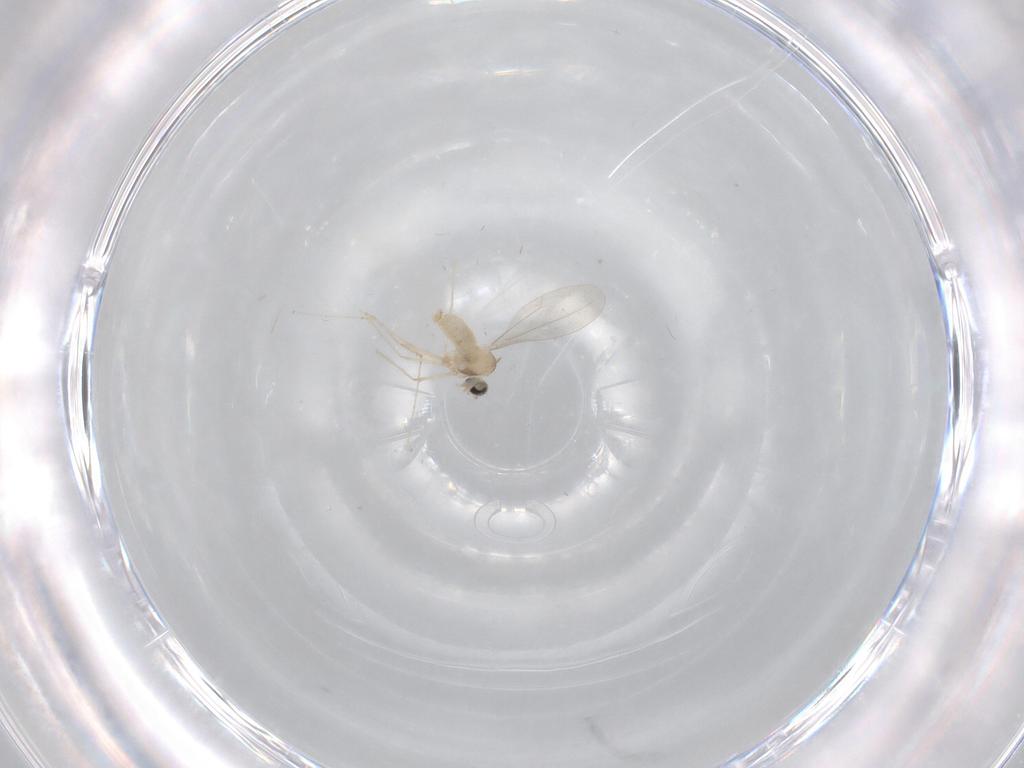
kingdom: Animalia
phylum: Arthropoda
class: Insecta
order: Diptera
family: Cecidomyiidae
